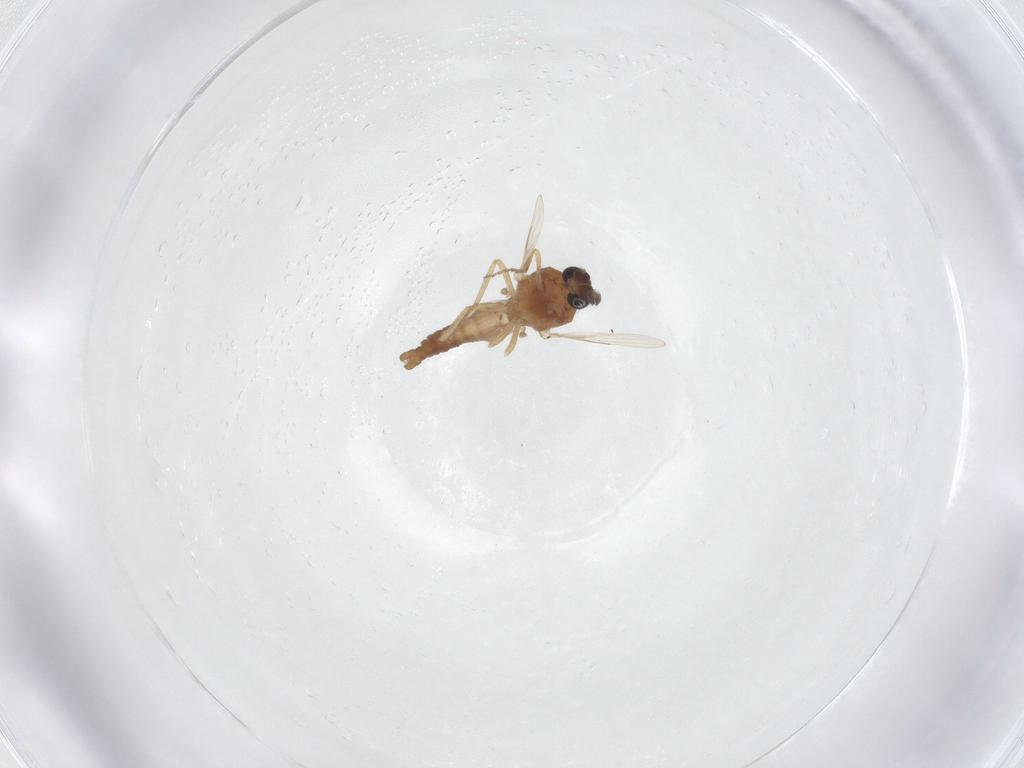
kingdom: Animalia
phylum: Arthropoda
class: Insecta
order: Diptera
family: Ceratopogonidae
